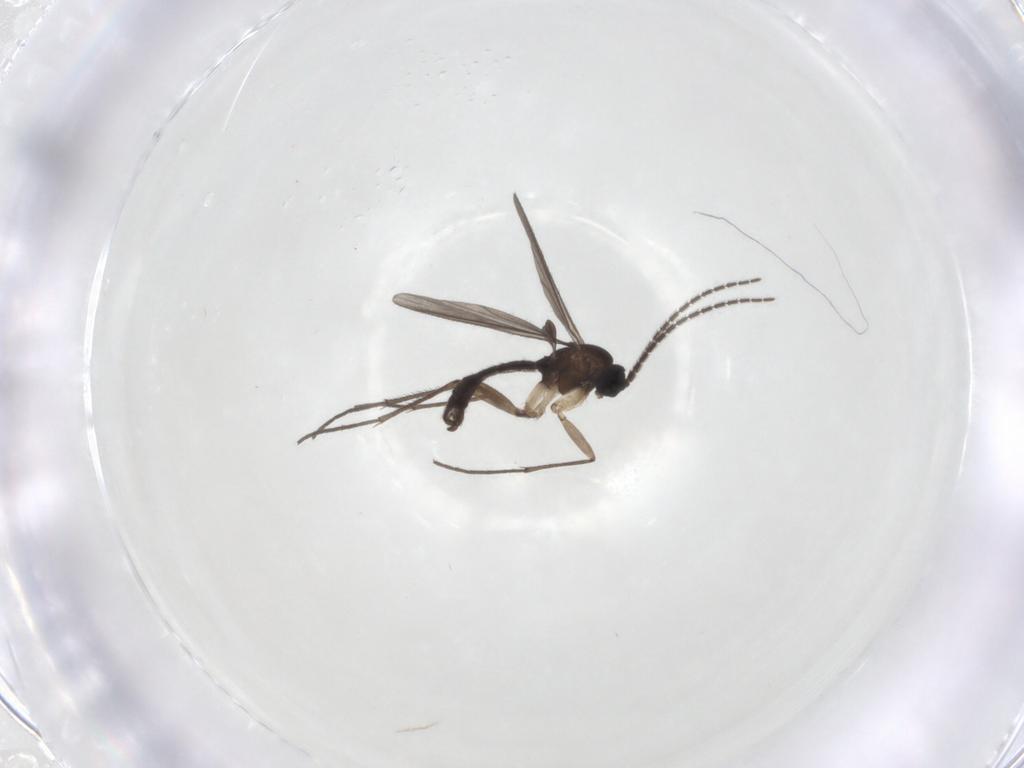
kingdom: Animalia
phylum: Arthropoda
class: Insecta
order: Diptera
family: Sciaridae
